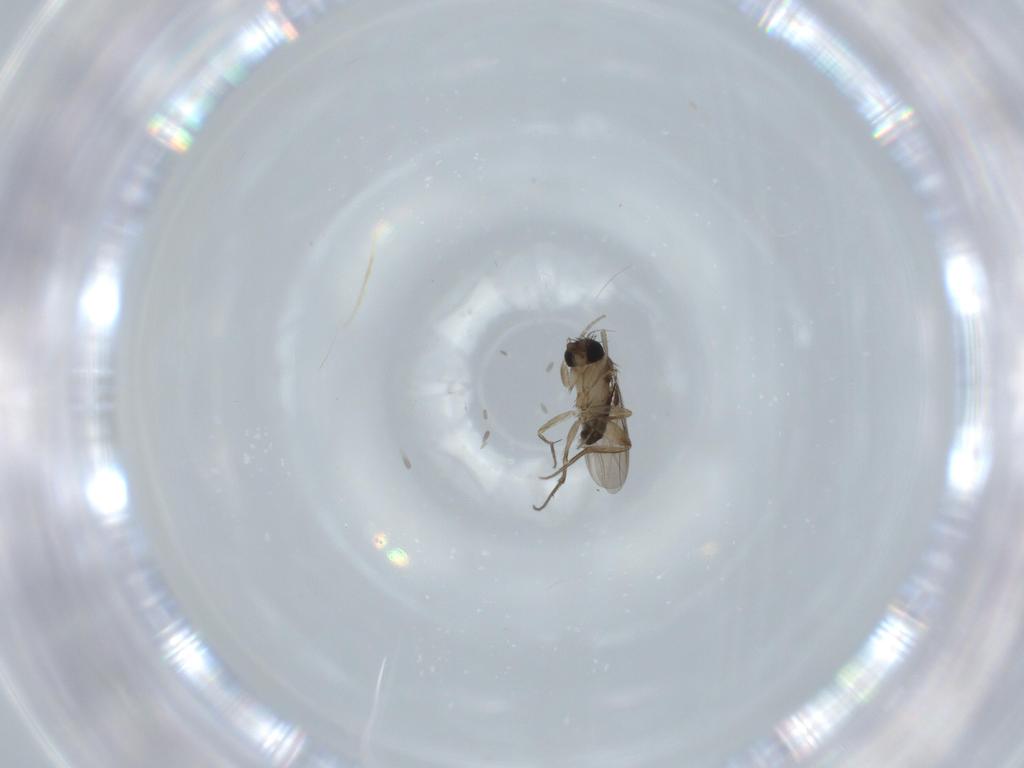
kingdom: Animalia
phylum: Arthropoda
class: Insecta
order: Diptera
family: Phoridae
